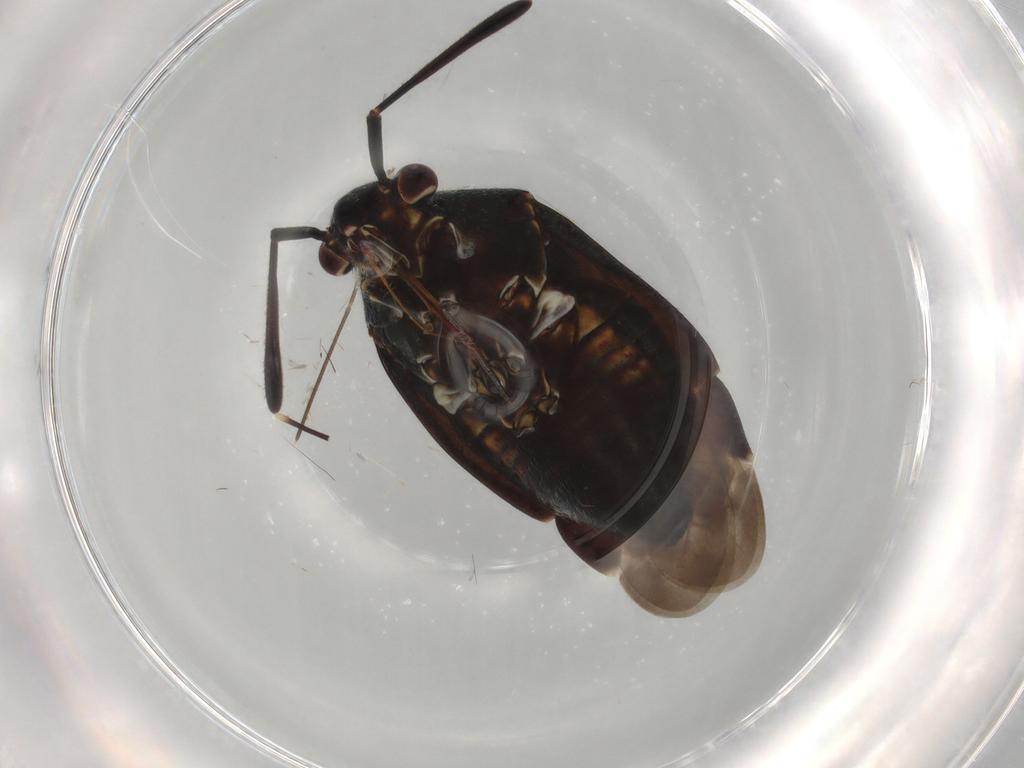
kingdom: Animalia
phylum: Arthropoda
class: Insecta
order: Hemiptera
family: Miridae
